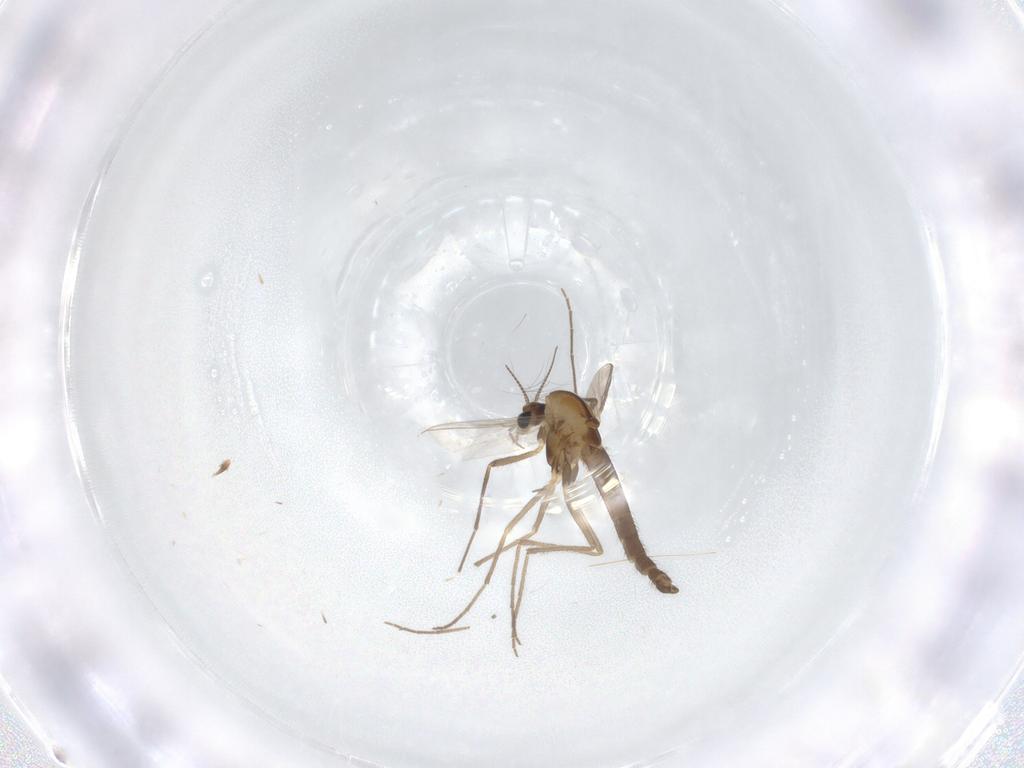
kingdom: Animalia
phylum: Arthropoda
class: Insecta
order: Diptera
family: Chironomidae
